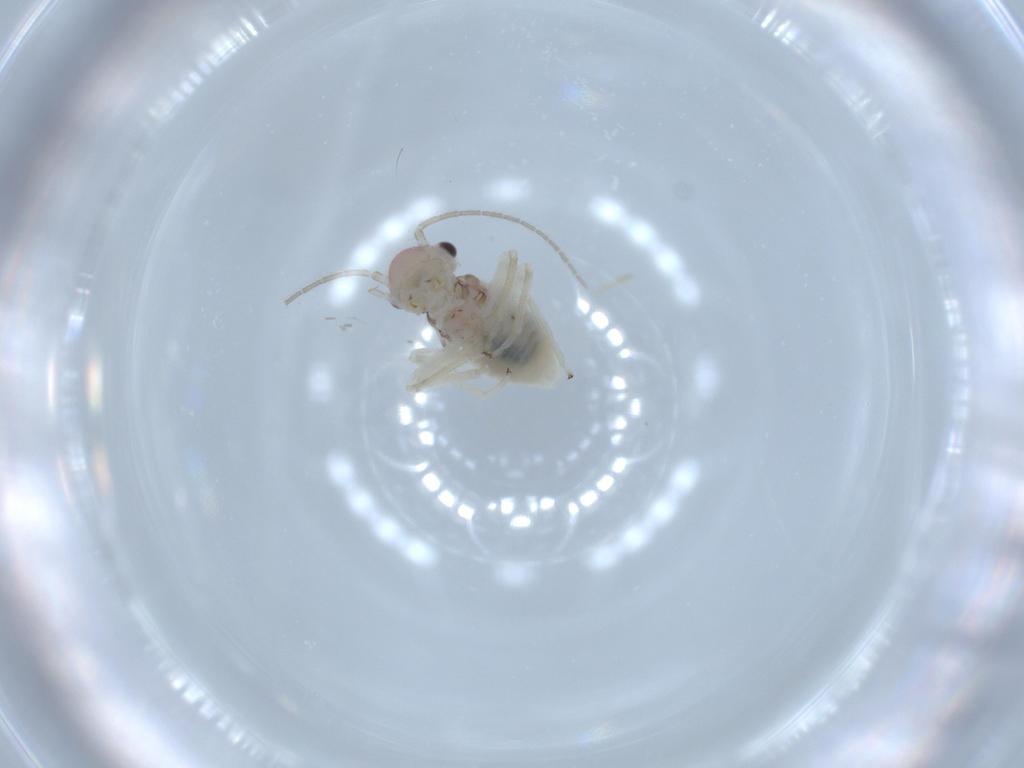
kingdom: Animalia
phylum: Arthropoda
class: Insecta
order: Psocodea
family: Amphipsocidae
